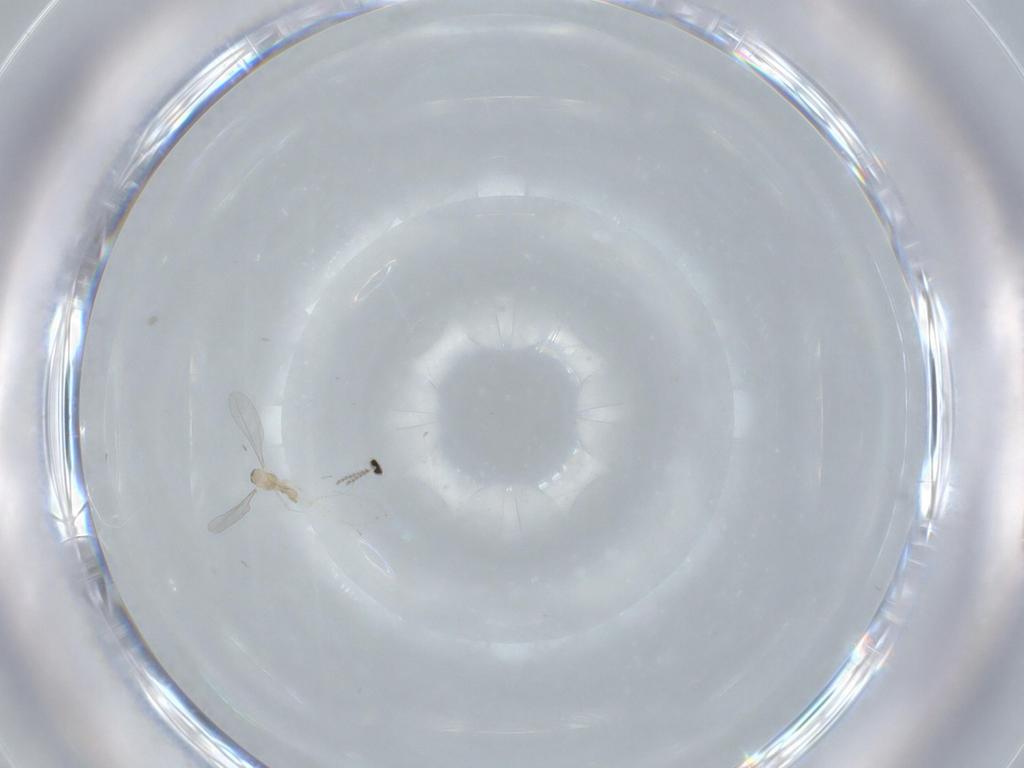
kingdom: Animalia
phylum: Arthropoda
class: Insecta
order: Diptera
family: Cecidomyiidae
